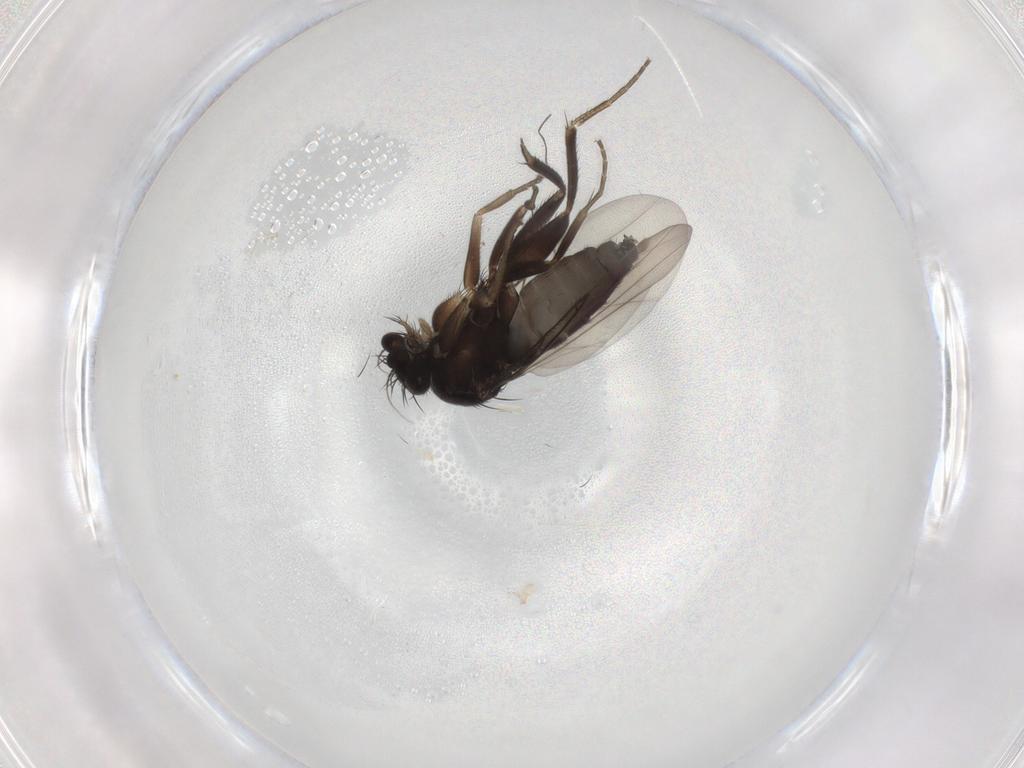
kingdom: Animalia
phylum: Arthropoda
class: Insecta
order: Diptera
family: Phoridae
